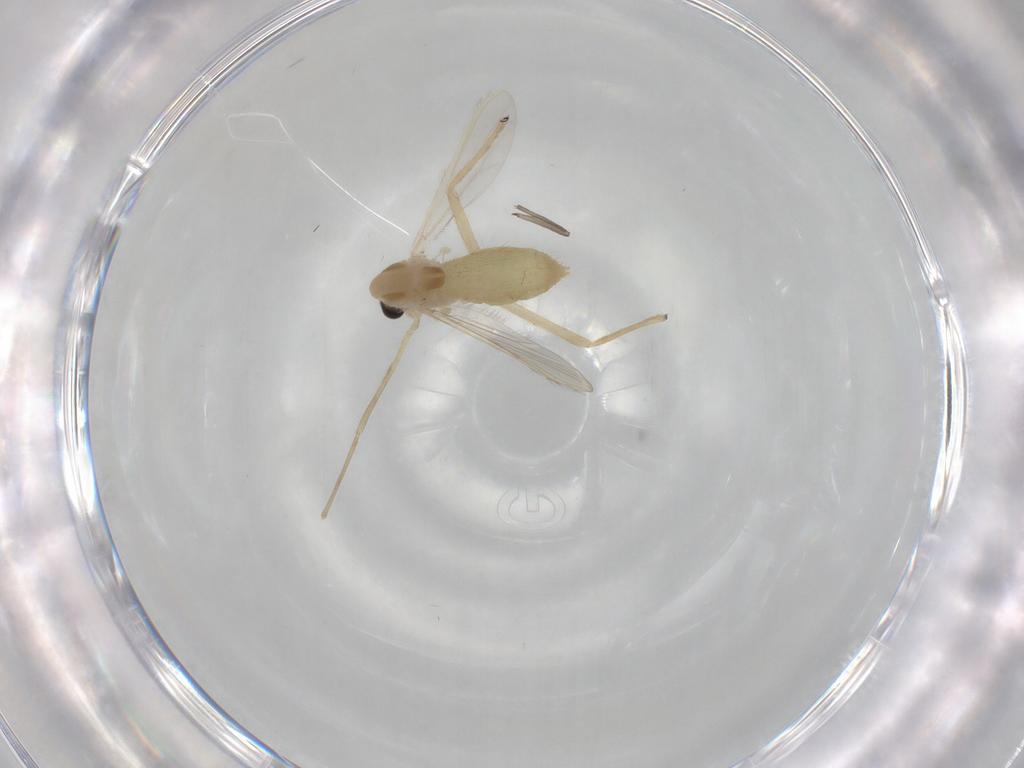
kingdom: Animalia
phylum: Arthropoda
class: Insecta
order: Diptera
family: Chironomidae
